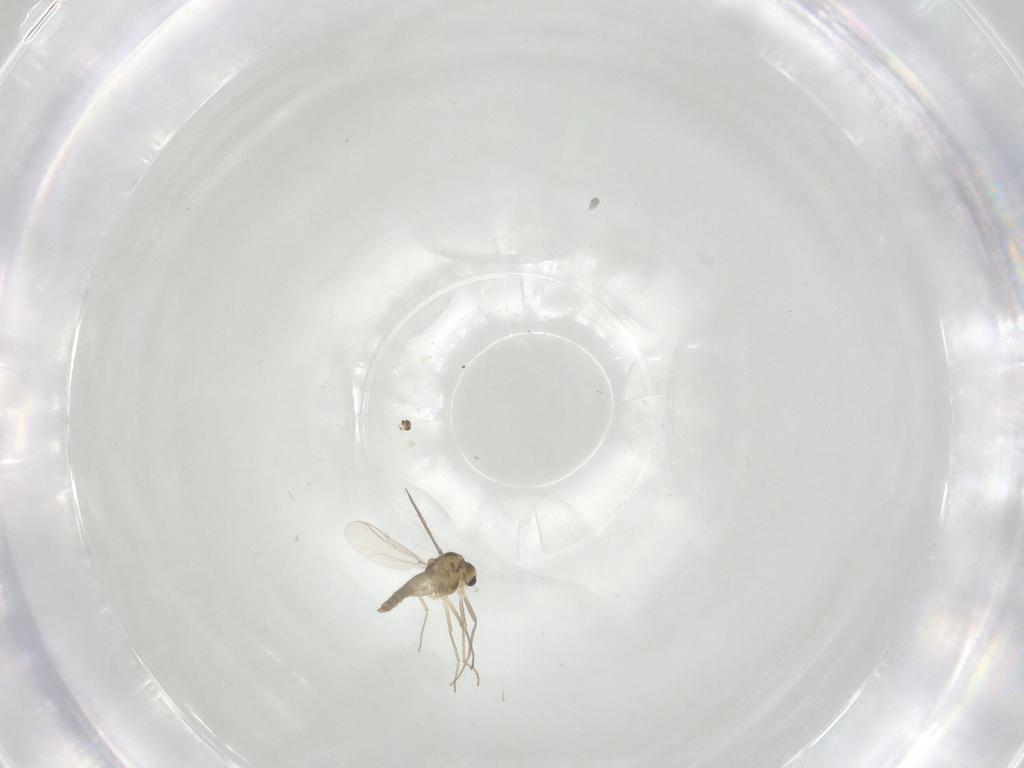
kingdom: Animalia
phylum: Arthropoda
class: Insecta
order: Diptera
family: Chironomidae
